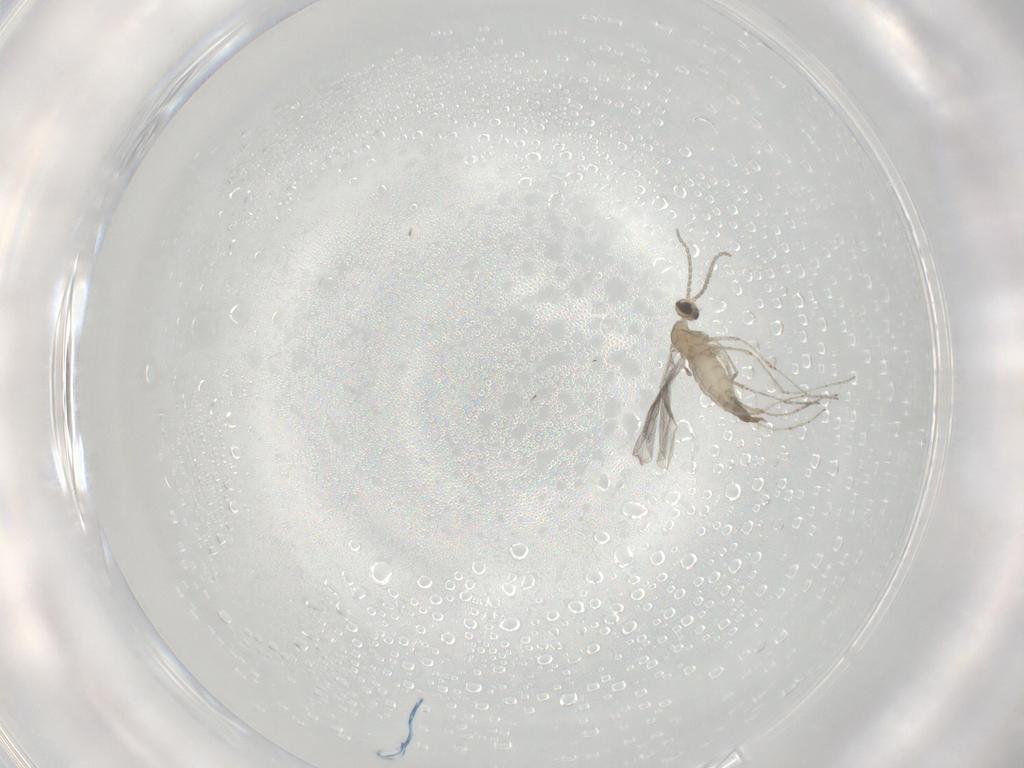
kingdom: Animalia
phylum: Arthropoda
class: Insecta
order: Diptera
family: Cecidomyiidae
